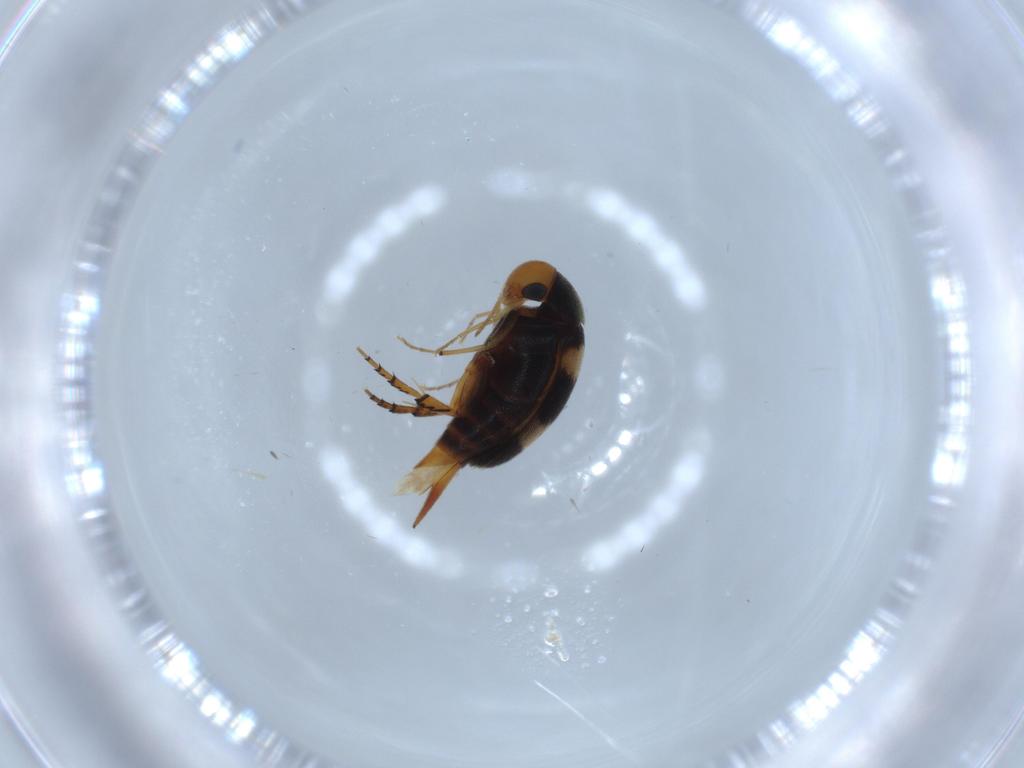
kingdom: Animalia
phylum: Arthropoda
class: Insecta
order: Coleoptera
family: Mordellidae
